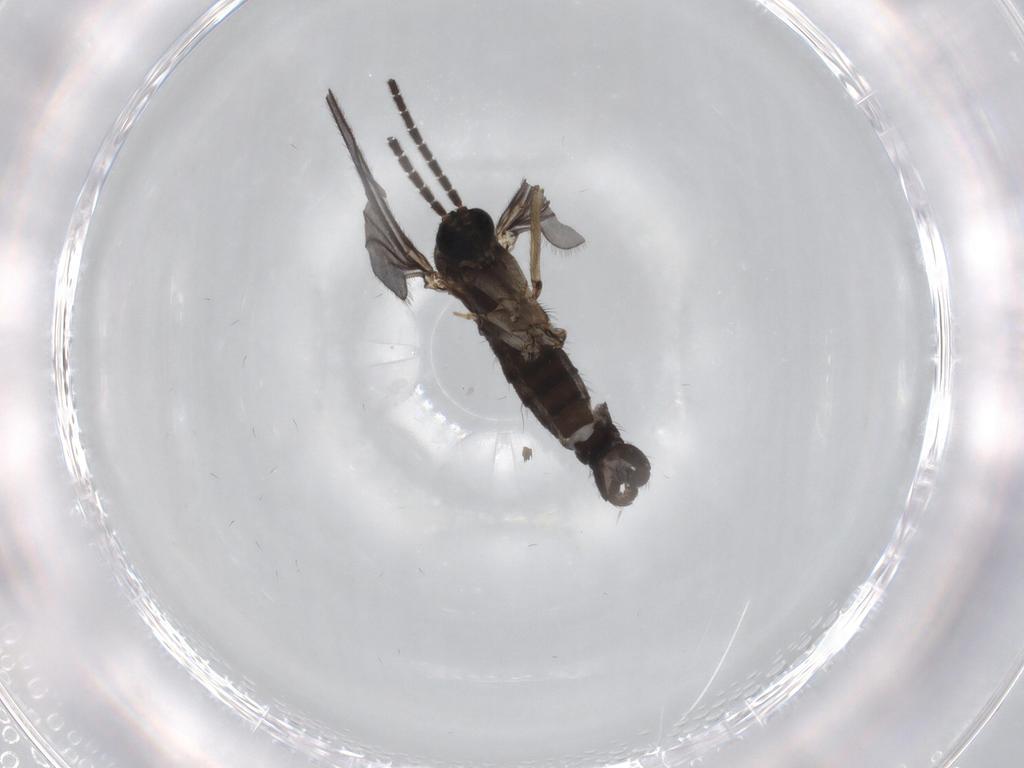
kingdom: Animalia
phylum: Arthropoda
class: Insecta
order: Diptera
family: Sciaridae
